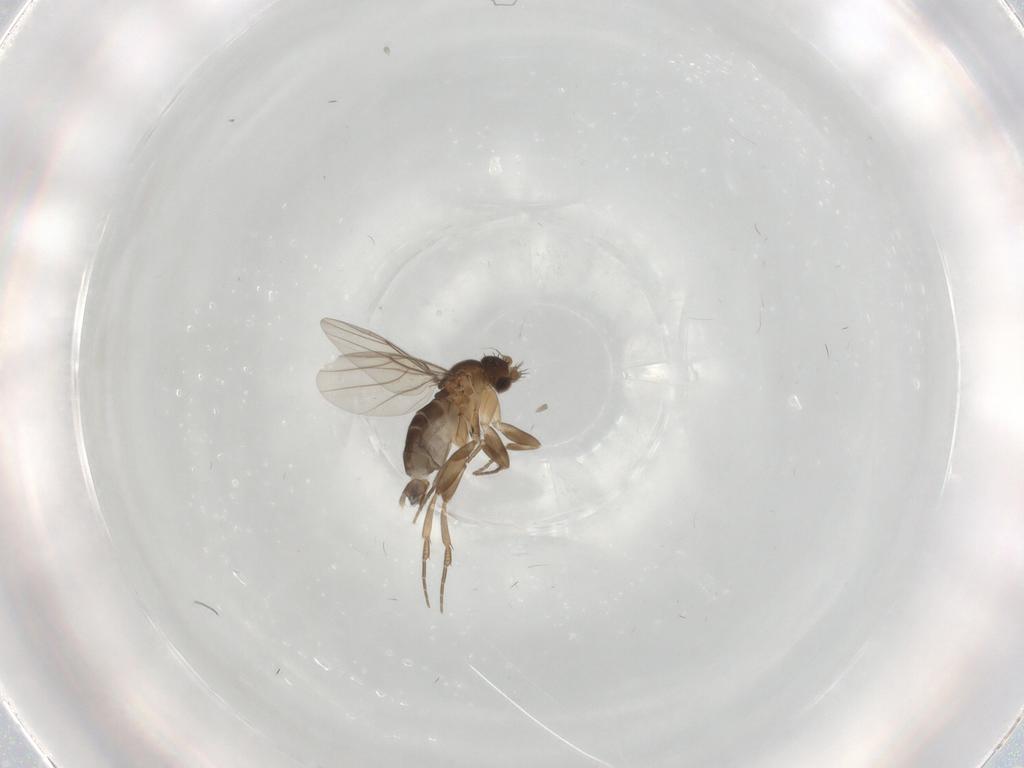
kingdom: Animalia
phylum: Arthropoda
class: Insecta
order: Diptera
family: Phoridae
